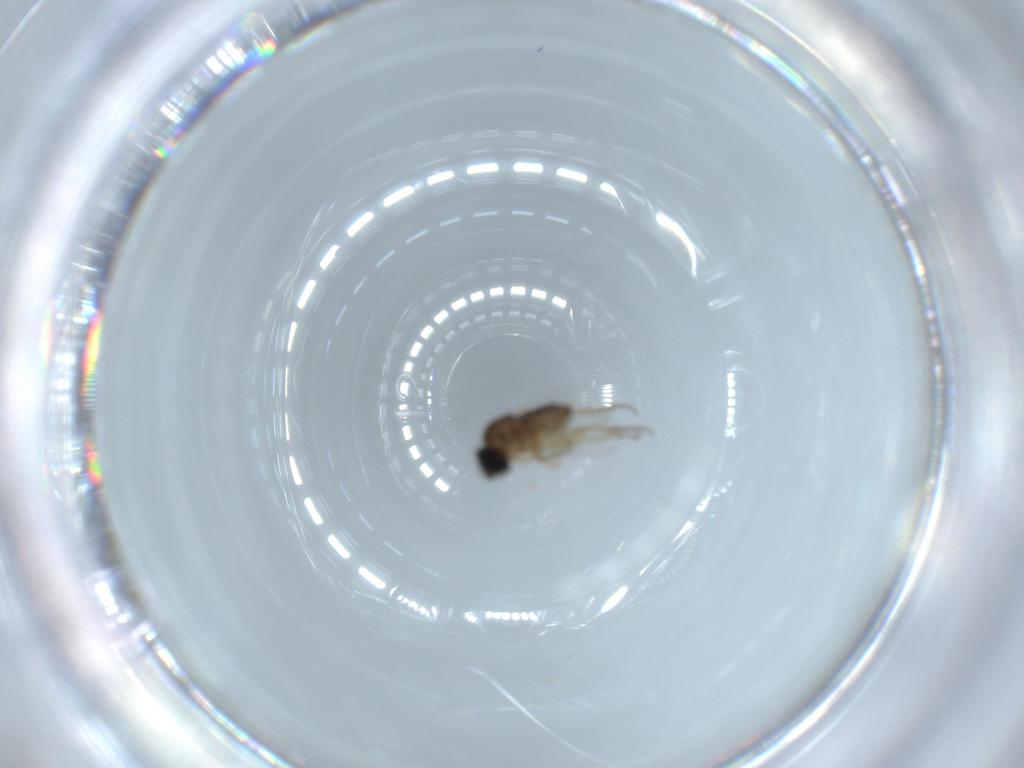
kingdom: Animalia
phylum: Arthropoda
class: Insecta
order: Diptera
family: Phoridae
